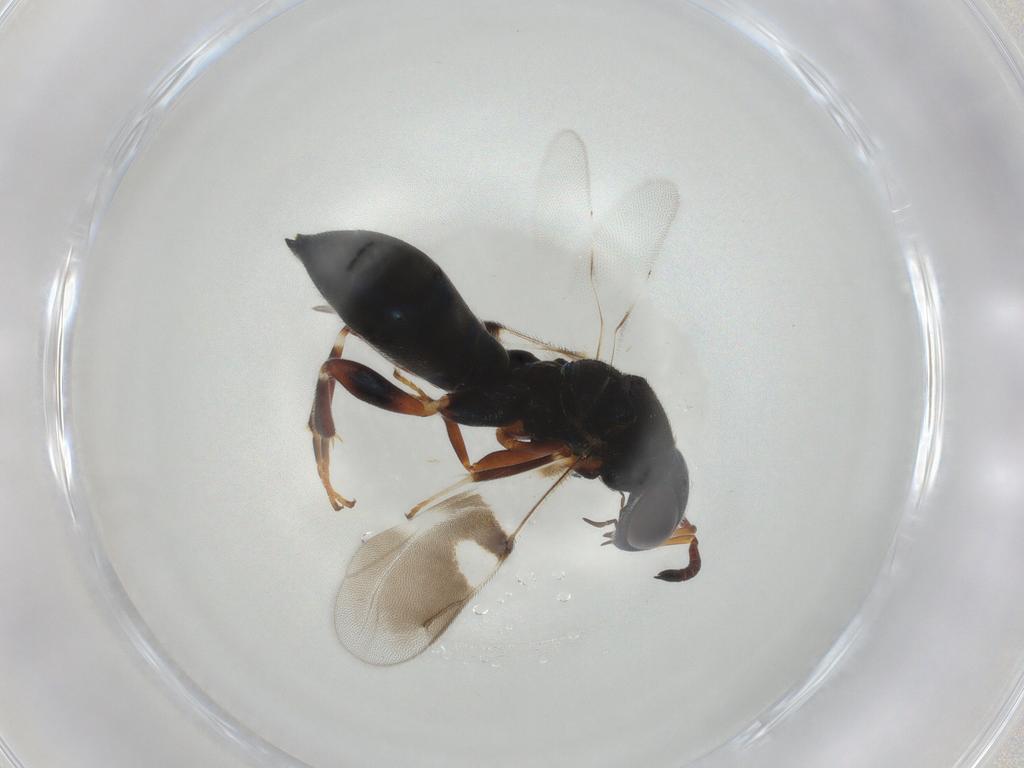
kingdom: Animalia
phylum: Arthropoda
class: Insecta
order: Hymenoptera
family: Cleonyminae
